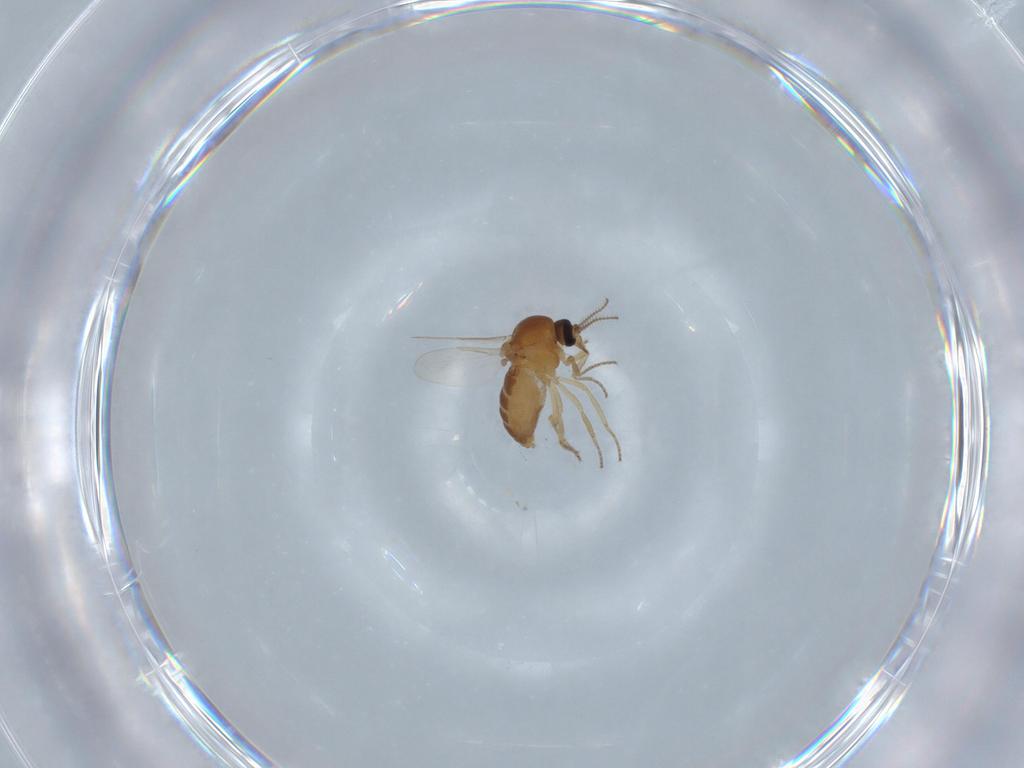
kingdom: Animalia
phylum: Arthropoda
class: Insecta
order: Diptera
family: Ceratopogonidae
